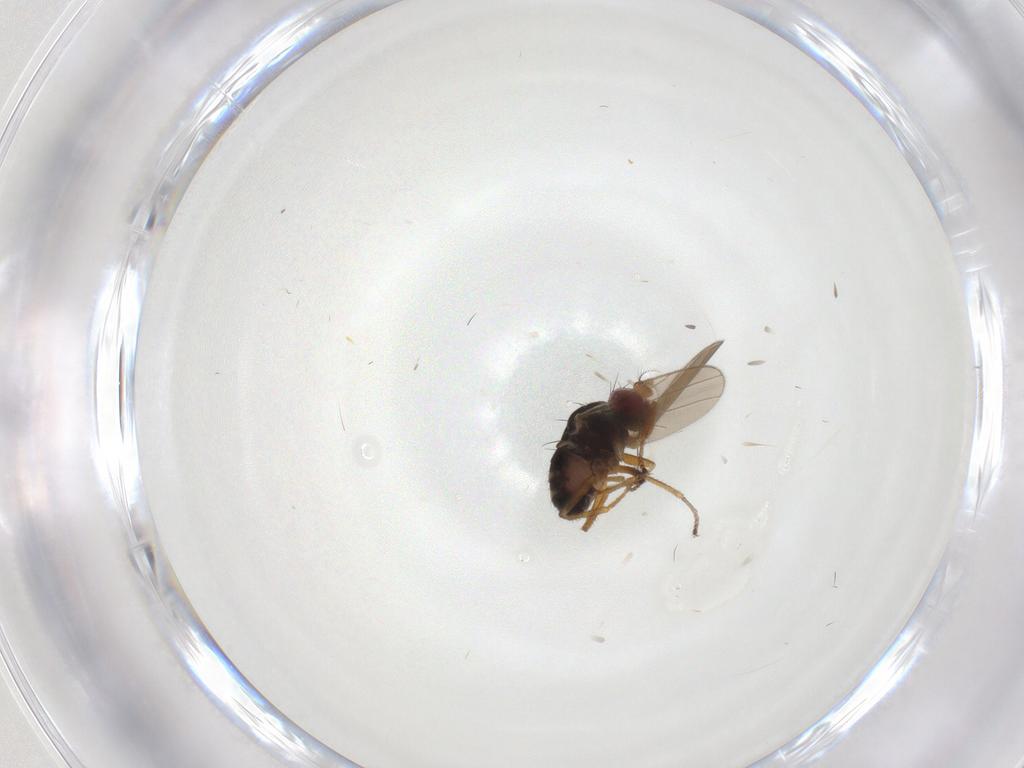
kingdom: Animalia
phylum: Arthropoda
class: Insecta
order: Diptera
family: Ephydridae
